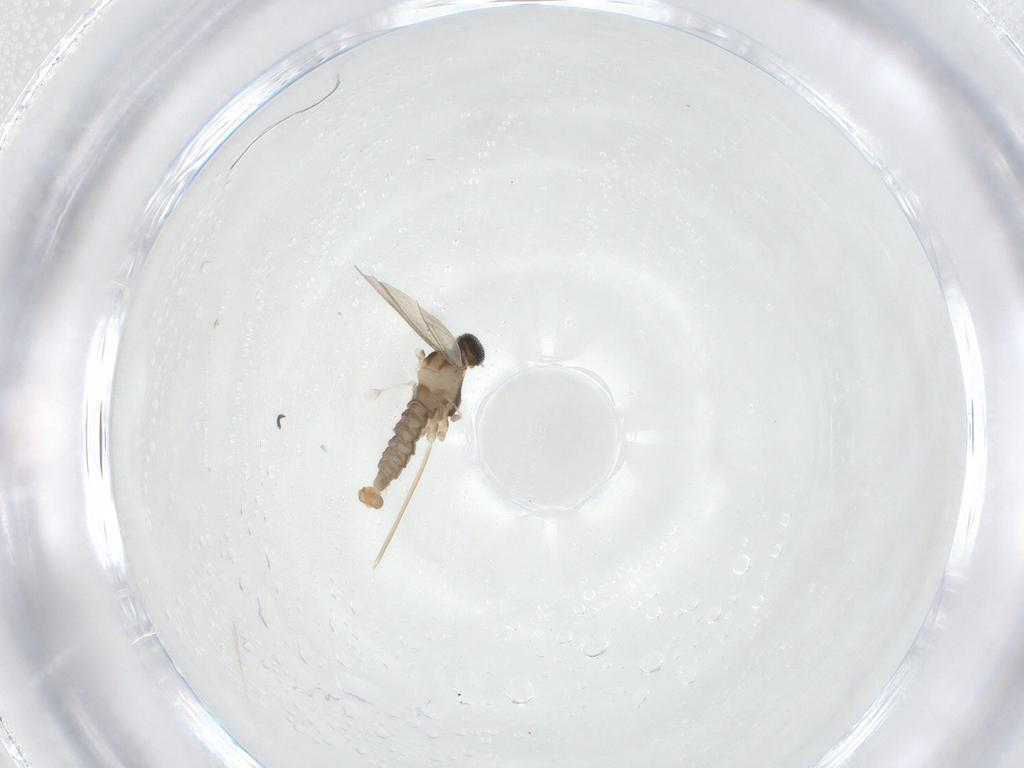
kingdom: Animalia
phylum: Arthropoda
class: Insecta
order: Diptera
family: Cecidomyiidae
